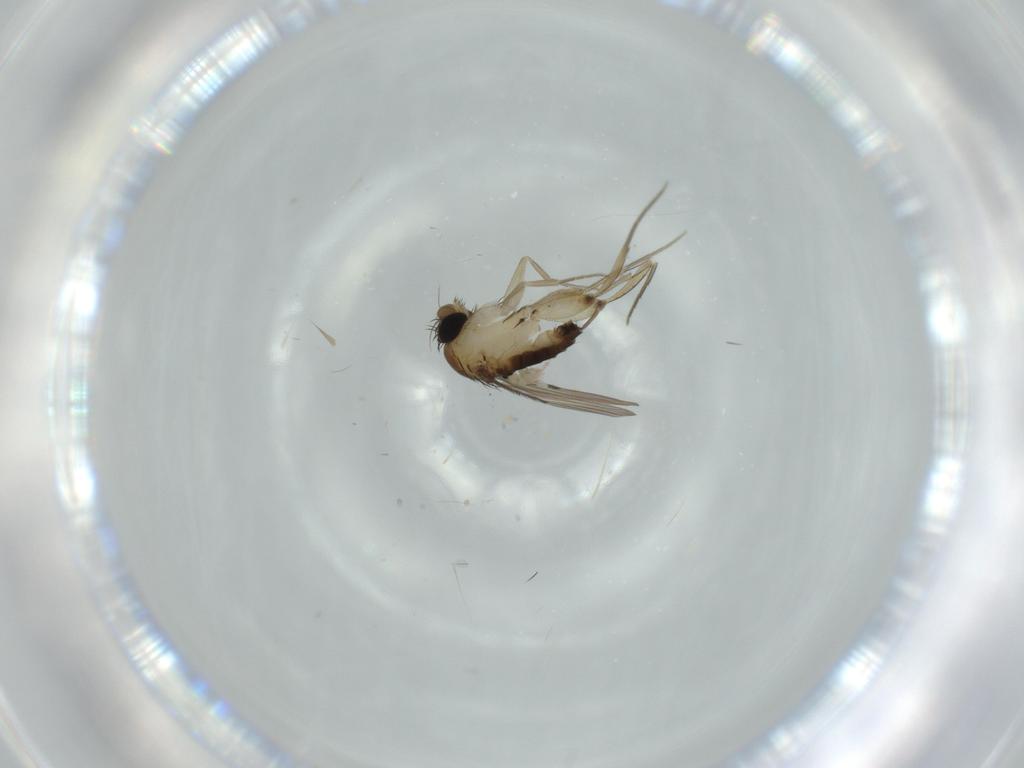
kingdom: Animalia
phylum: Arthropoda
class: Insecta
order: Diptera
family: Phoridae
